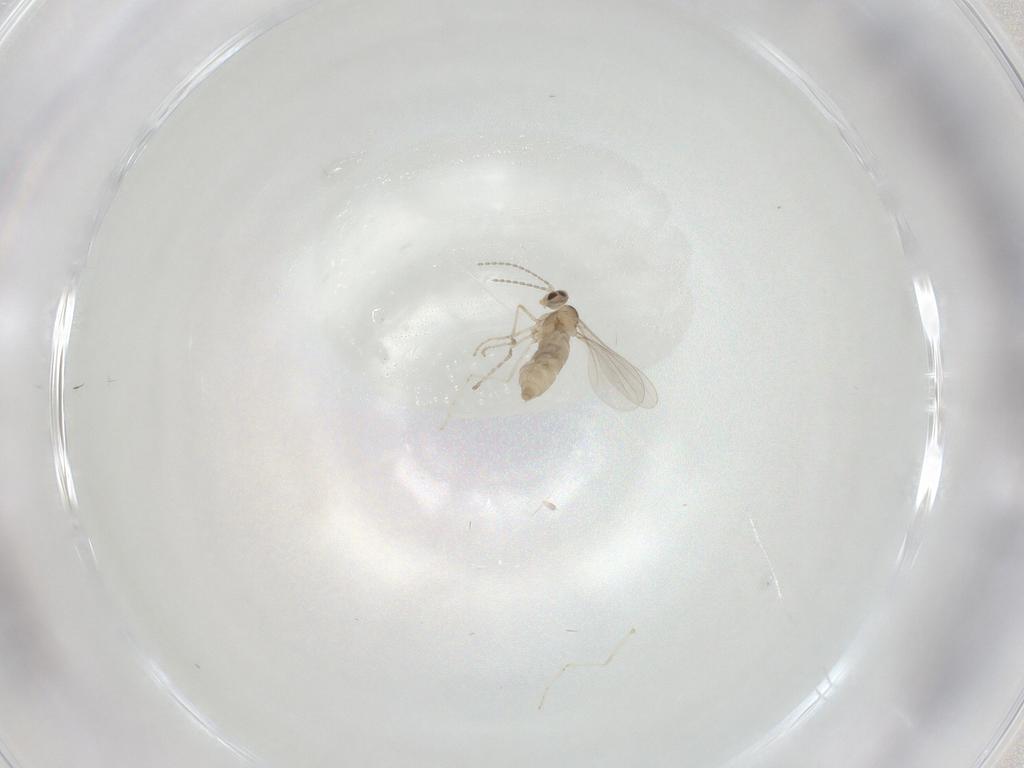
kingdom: Animalia
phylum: Arthropoda
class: Insecta
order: Diptera
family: Cecidomyiidae
